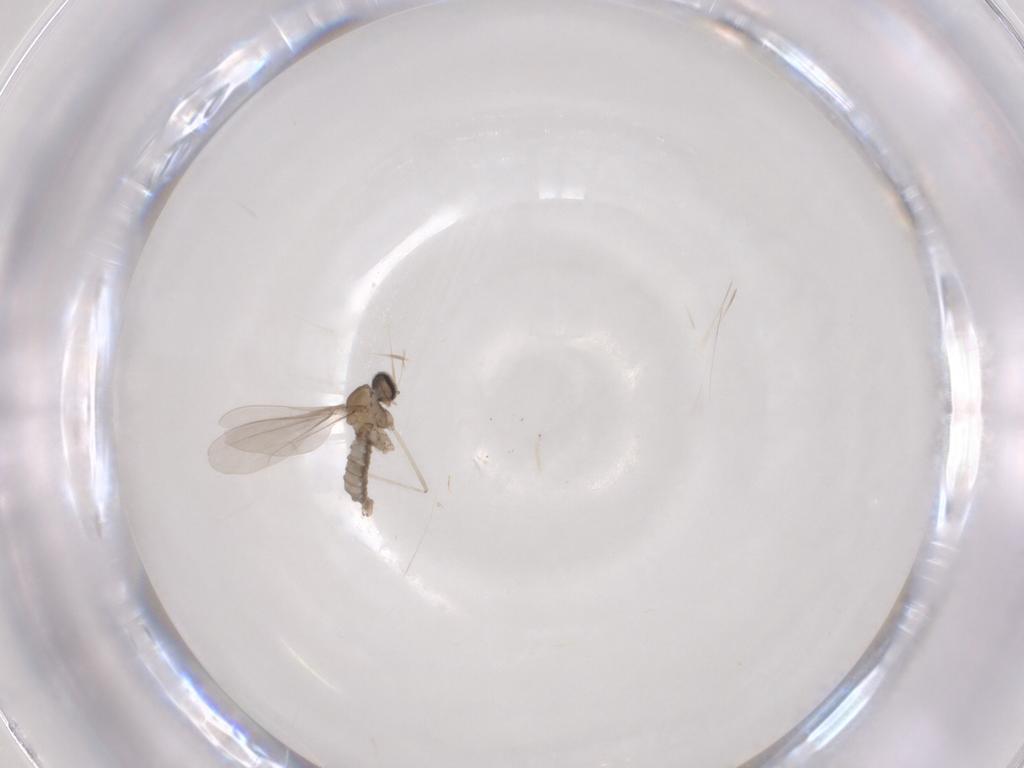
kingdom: Animalia
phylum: Arthropoda
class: Insecta
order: Diptera
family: Cecidomyiidae
